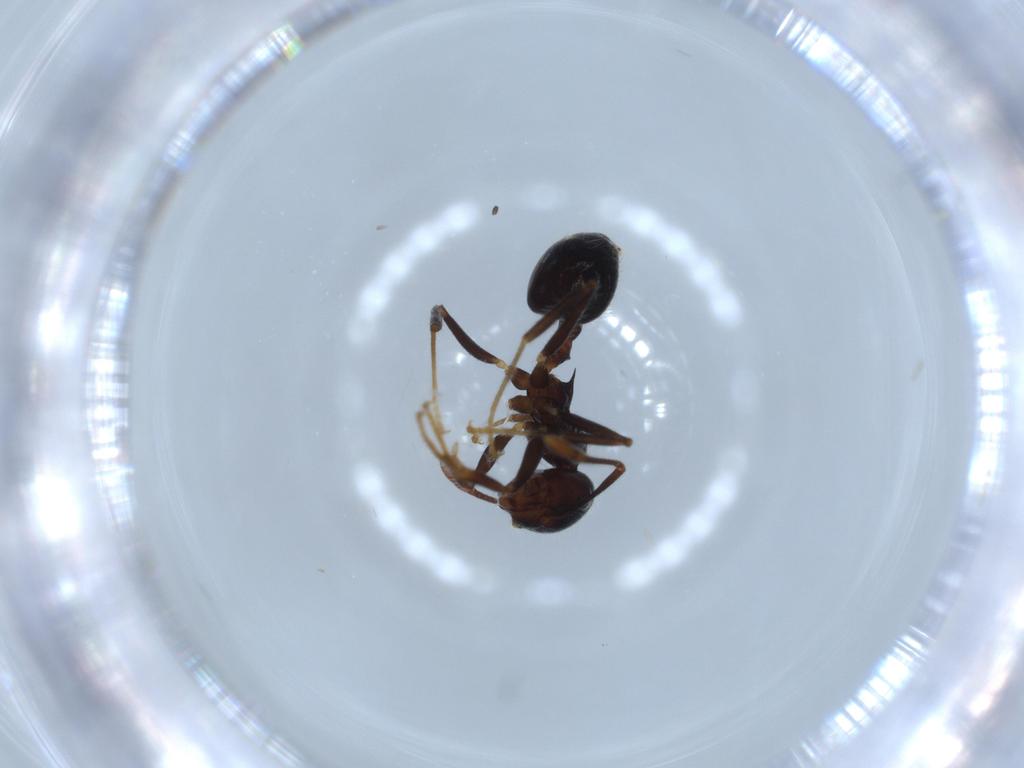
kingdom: Animalia
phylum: Arthropoda
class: Insecta
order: Hymenoptera
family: Formicidae
